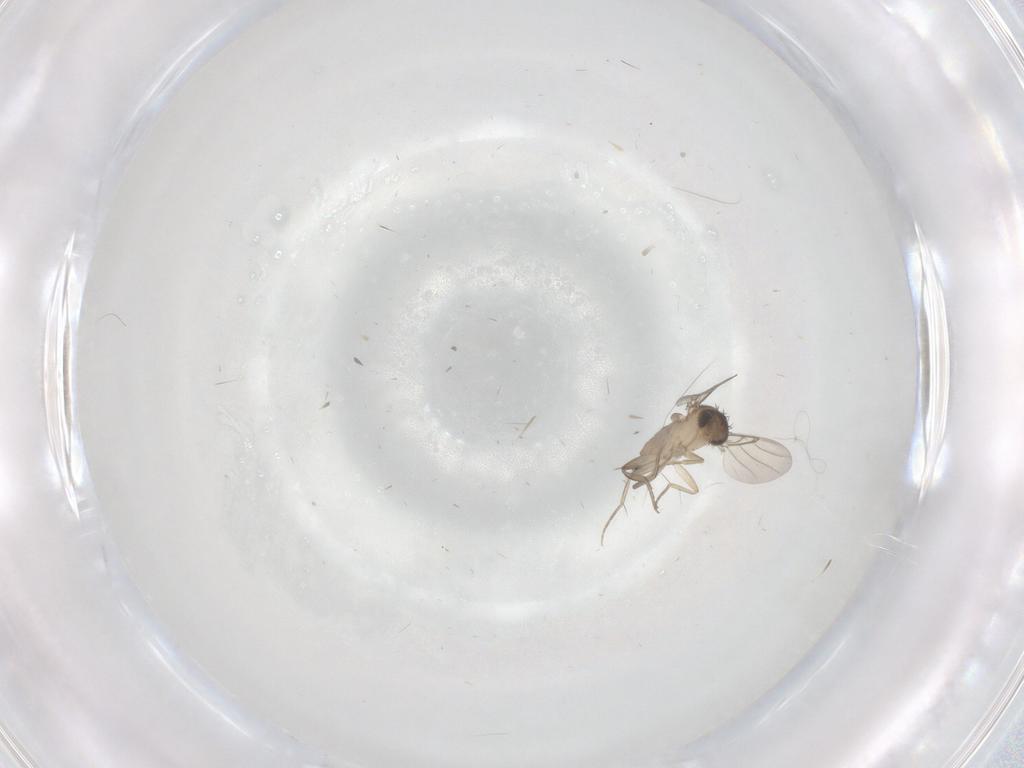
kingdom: Animalia
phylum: Arthropoda
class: Insecta
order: Diptera
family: Phoridae
